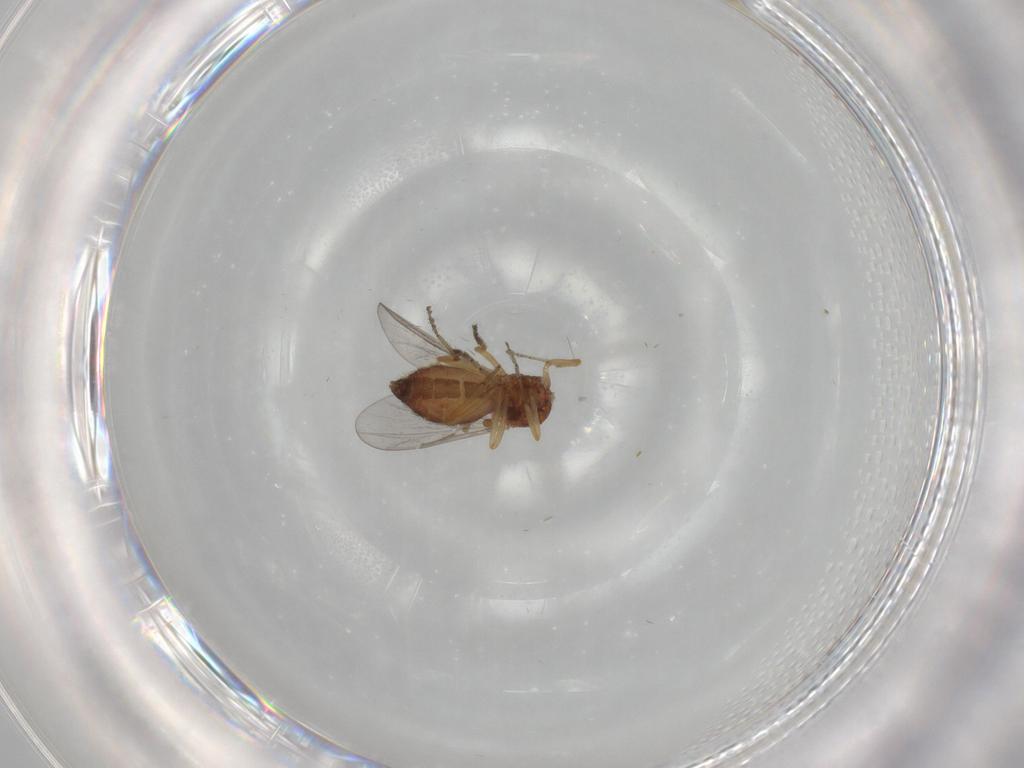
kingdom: Animalia
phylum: Arthropoda
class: Insecta
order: Diptera
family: Ceratopogonidae
